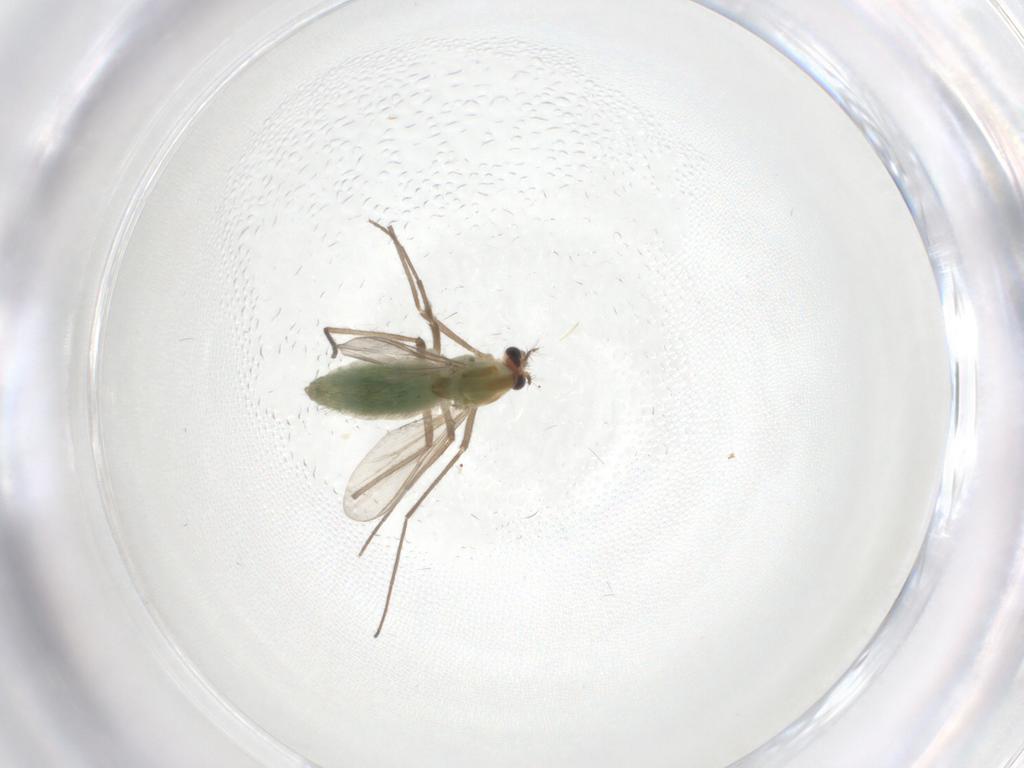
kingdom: Animalia
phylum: Arthropoda
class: Insecta
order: Diptera
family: Chironomidae
